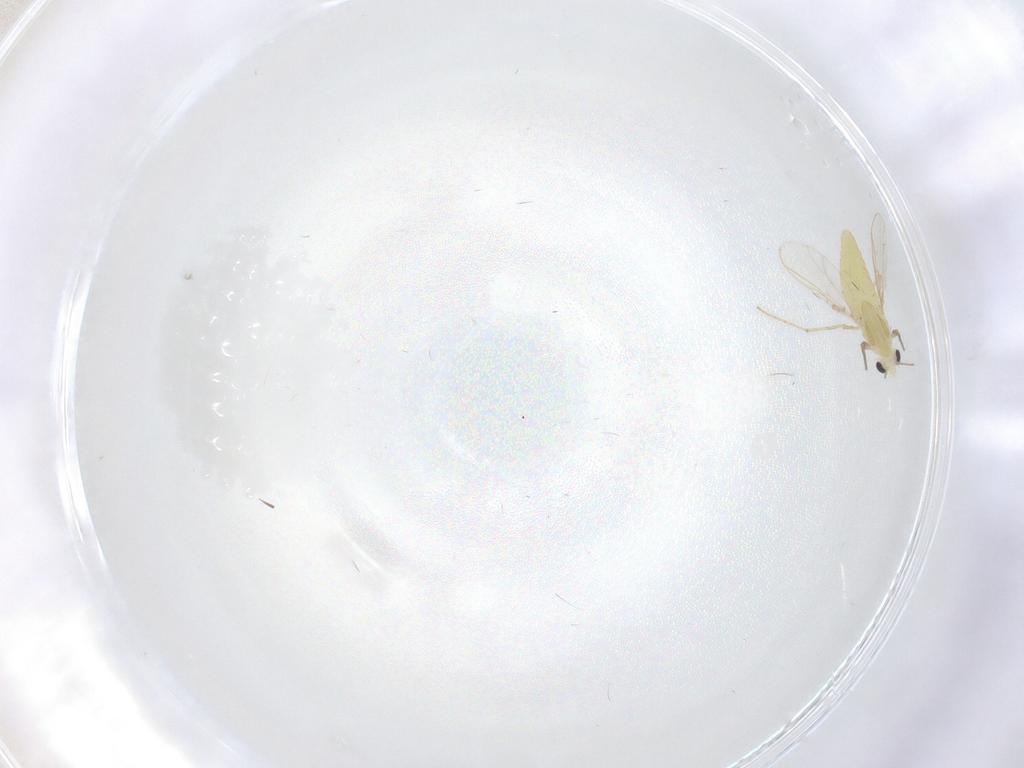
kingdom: Animalia
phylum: Arthropoda
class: Insecta
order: Diptera
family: Chironomidae
